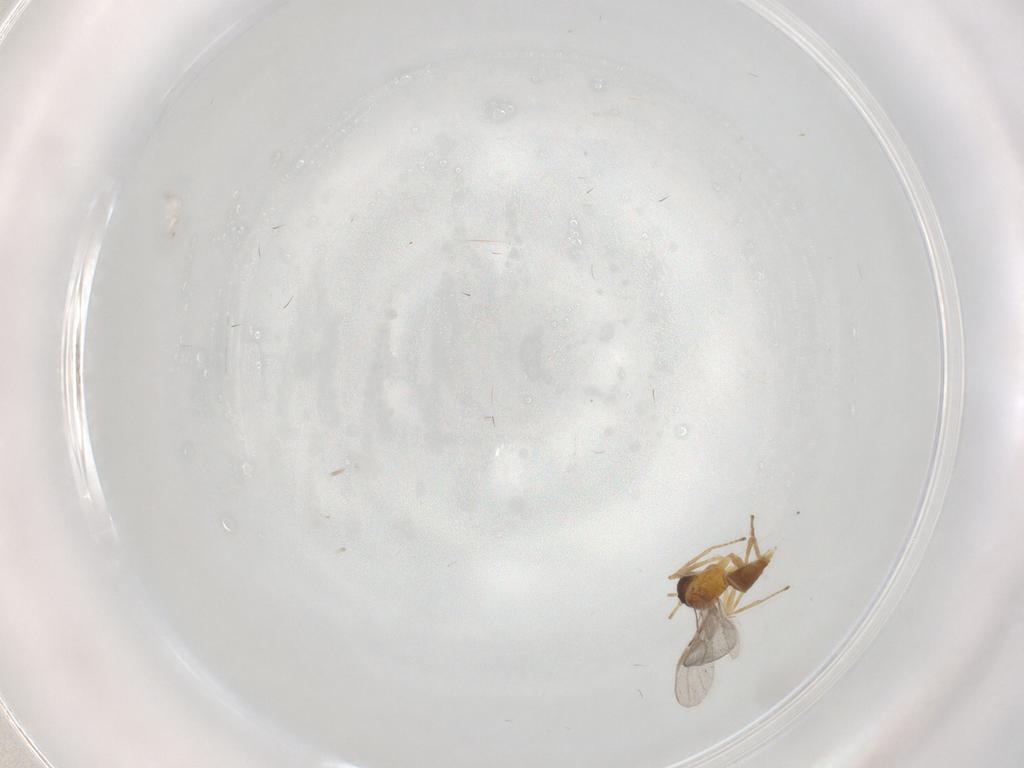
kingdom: Animalia
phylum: Arthropoda
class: Insecta
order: Hymenoptera
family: Braconidae
